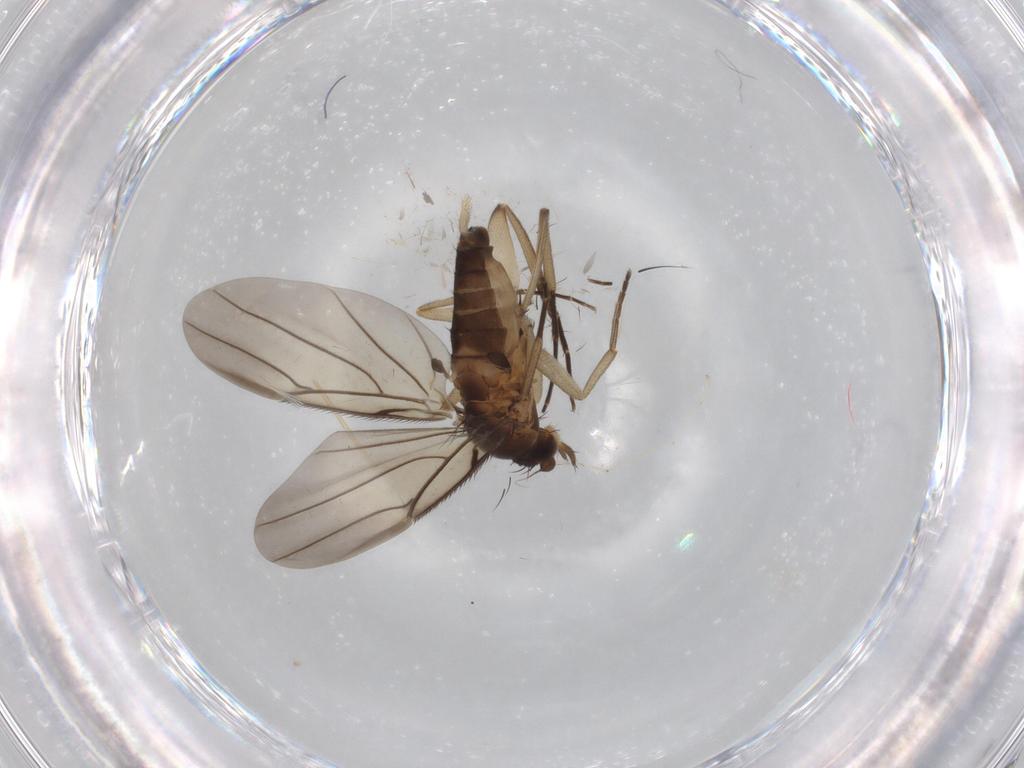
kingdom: Animalia
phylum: Arthropoda
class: Insecta
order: Diptera
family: Phoridae
